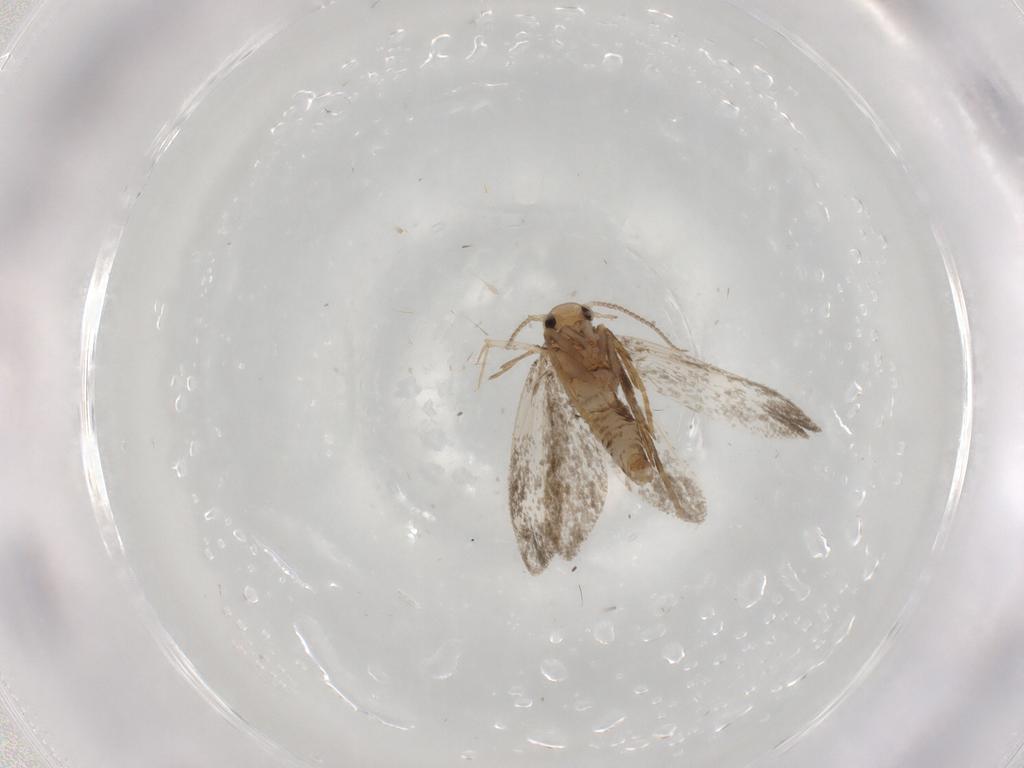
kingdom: Animalia
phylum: Arthropoda
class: Insecta
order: Lepidoptera
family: Psychidae
